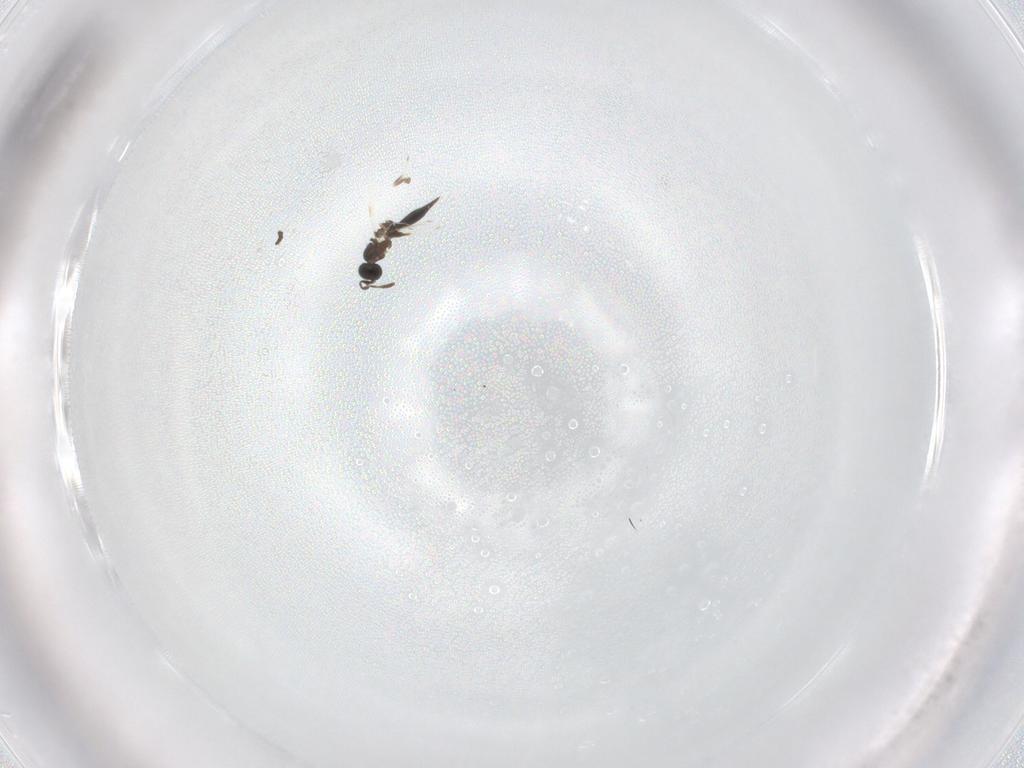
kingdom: Animalia
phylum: Arthropoda
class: Insecta
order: Hymenoptera
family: Scelionidae
